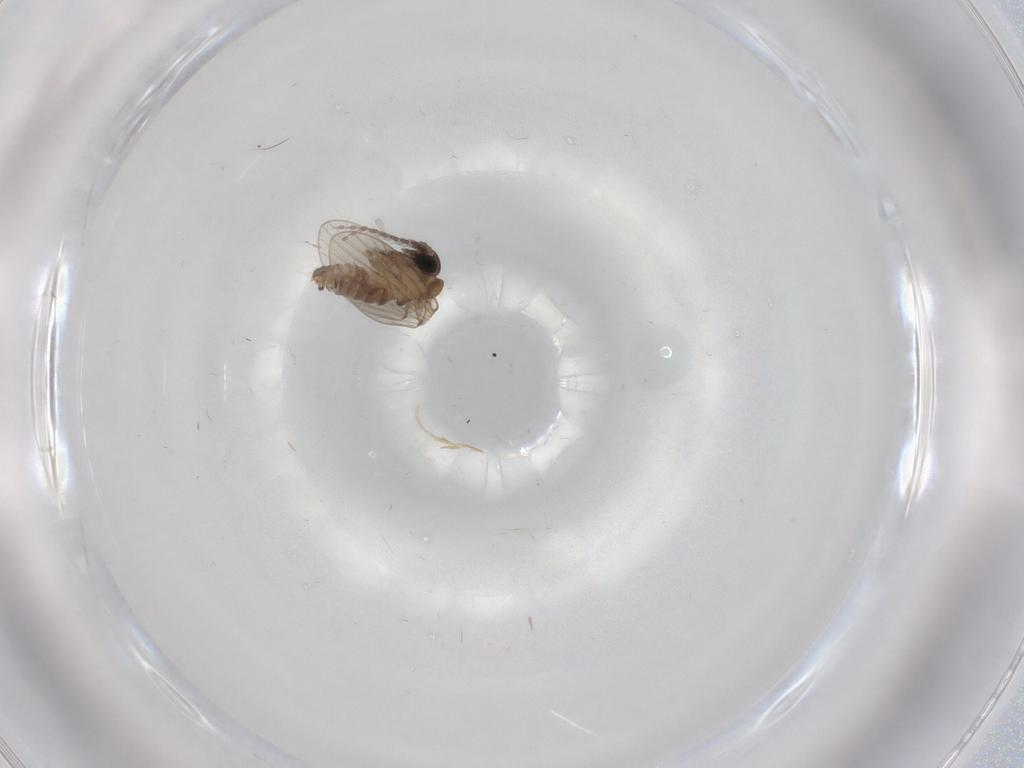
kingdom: Animalia
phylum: Arthropoda
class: Insecta
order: Diptera
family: Psychodidae
